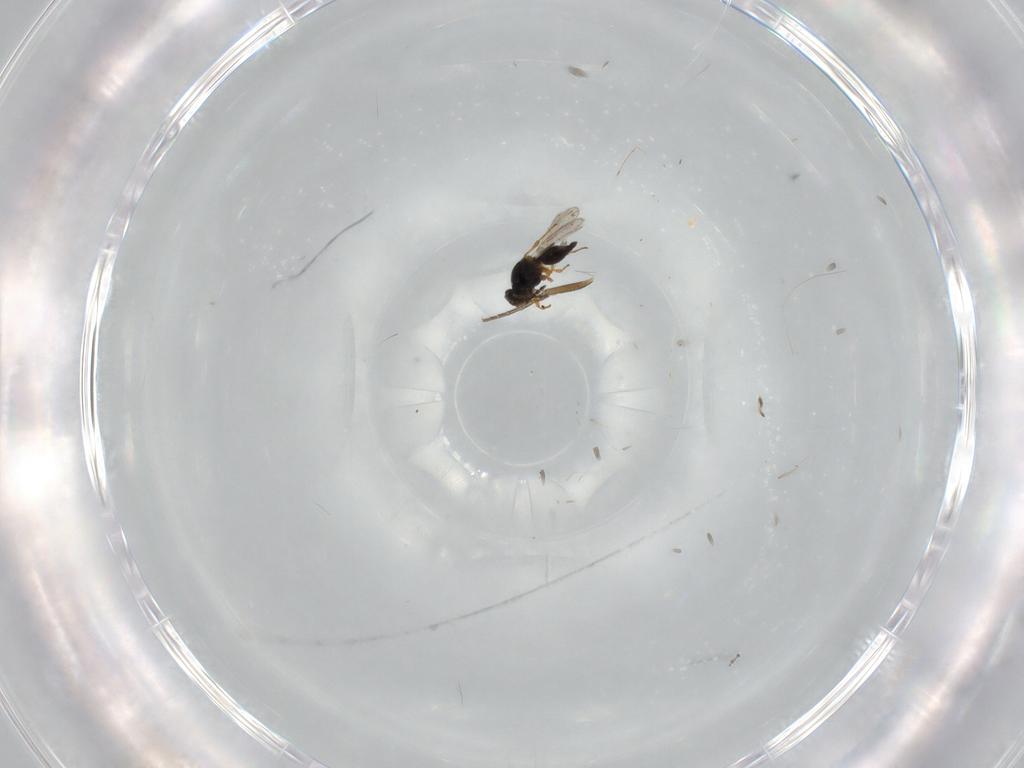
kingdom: Animalia
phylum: Arthropoda
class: Insecta
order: Hymenoptera
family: Platygastridae
